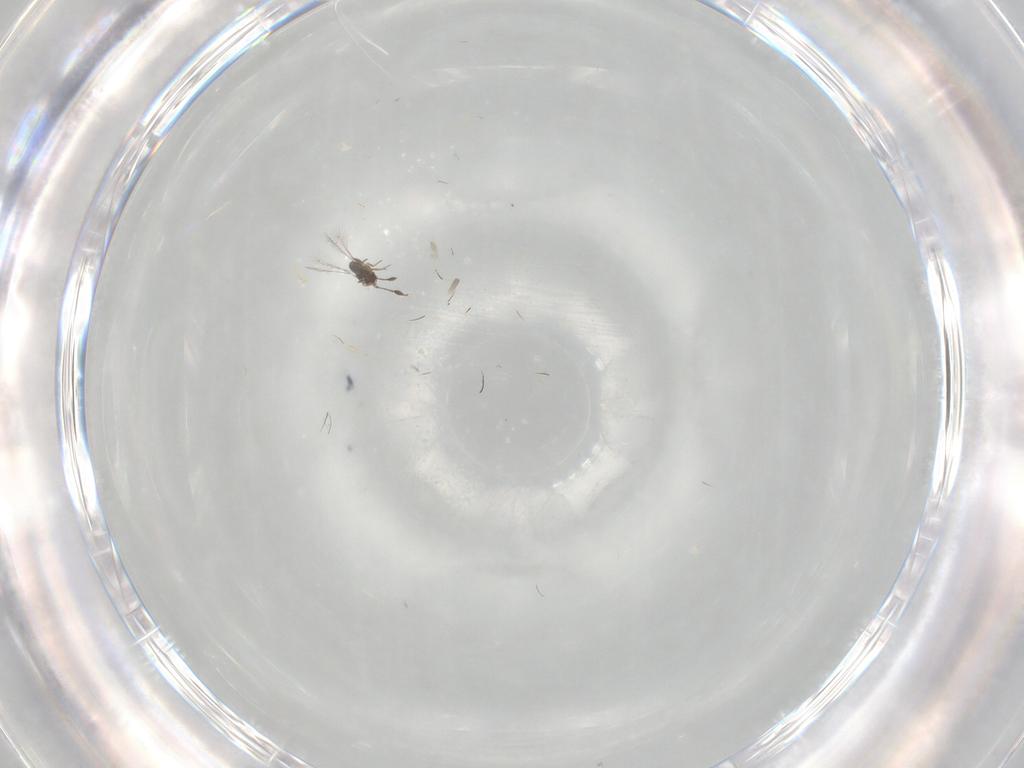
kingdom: Animalia
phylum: Arthropoda
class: Insecta
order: Hymenoptera
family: Mymaridae
